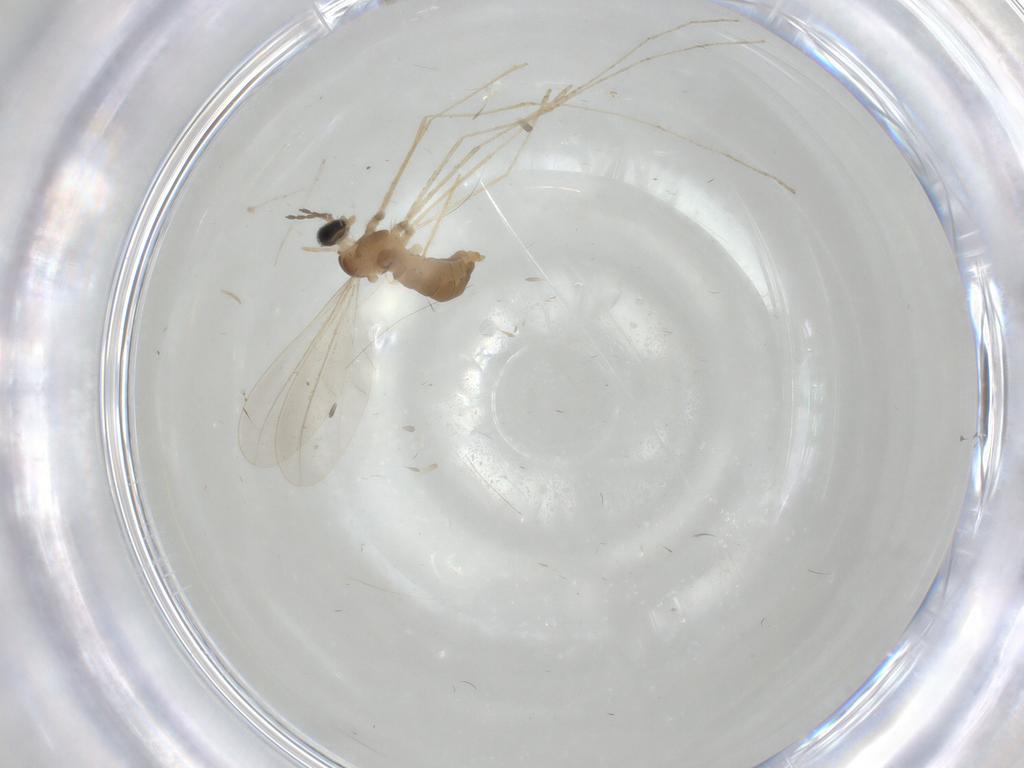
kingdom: Animalia
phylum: Arthropoda
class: Insecta
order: Diptera
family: Cecidomyiidae
